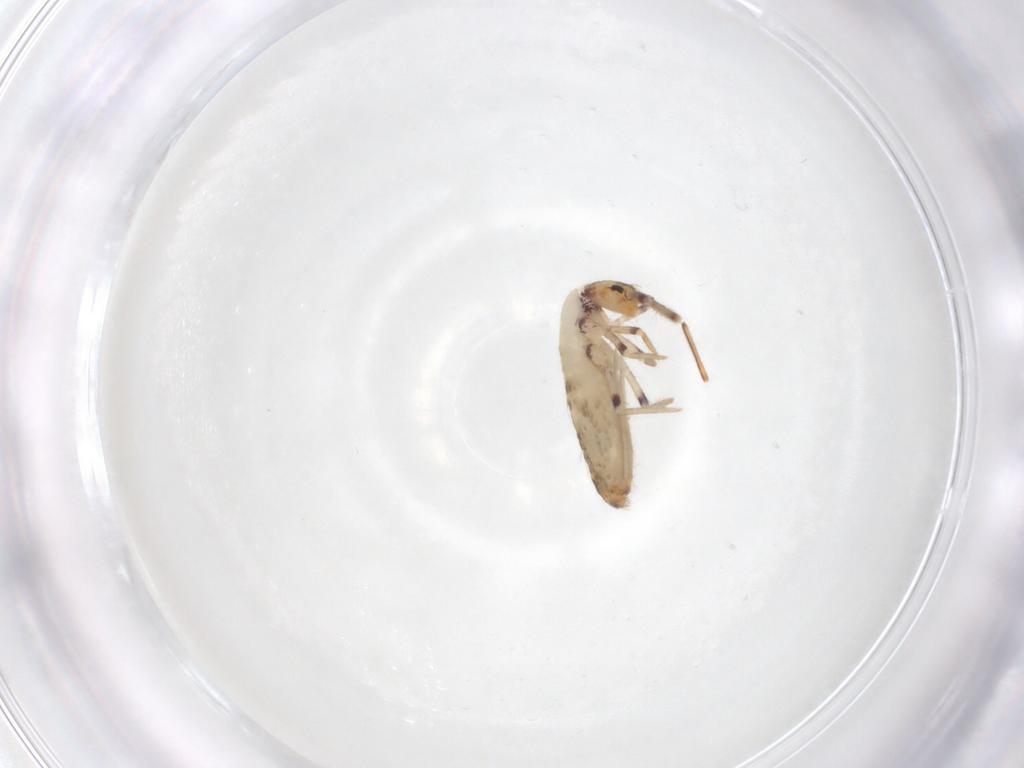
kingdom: Animalia
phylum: Arthropoda
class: Collembola
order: Entomobryomorpha
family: Entomobryidae
